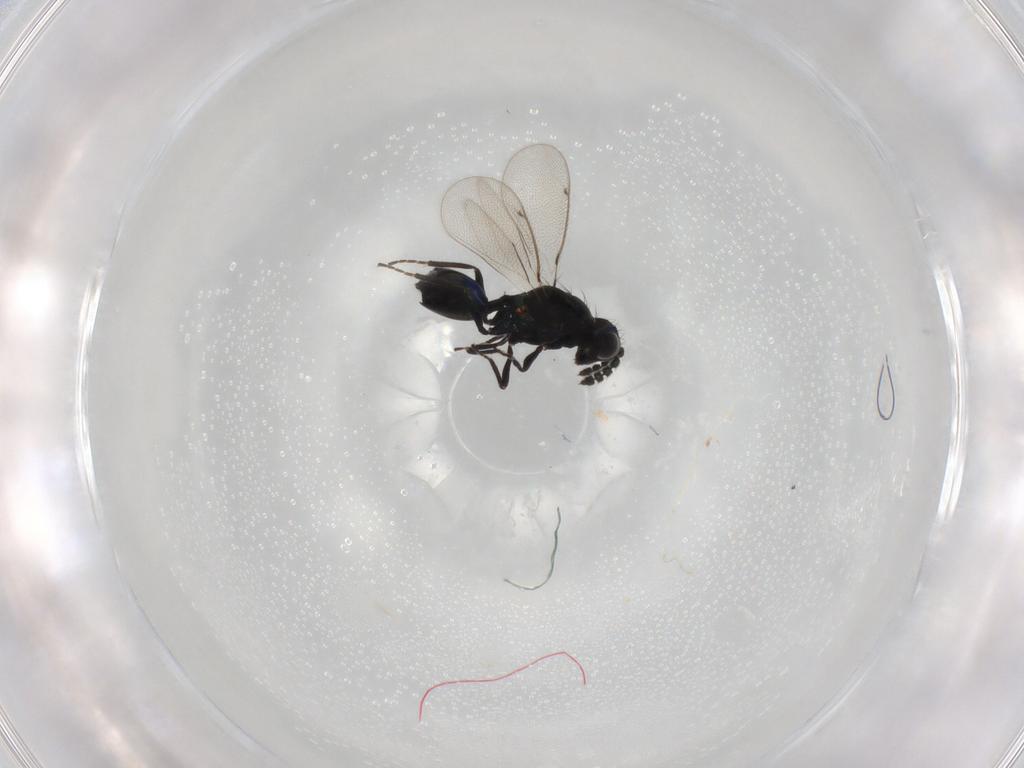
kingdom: Animalia
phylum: Arthropoda
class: Insecta
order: Hymenoptera
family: Eulophidae
